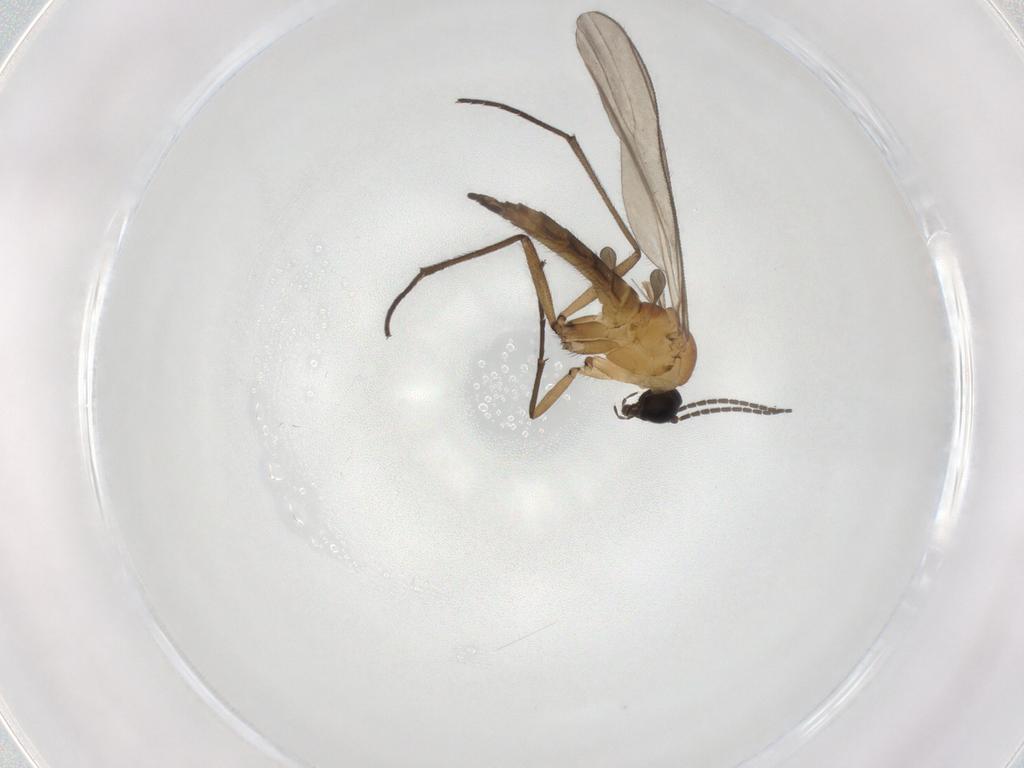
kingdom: Animalia
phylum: Arthropoda
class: Insecta
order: Diptera
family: Sciaridae
